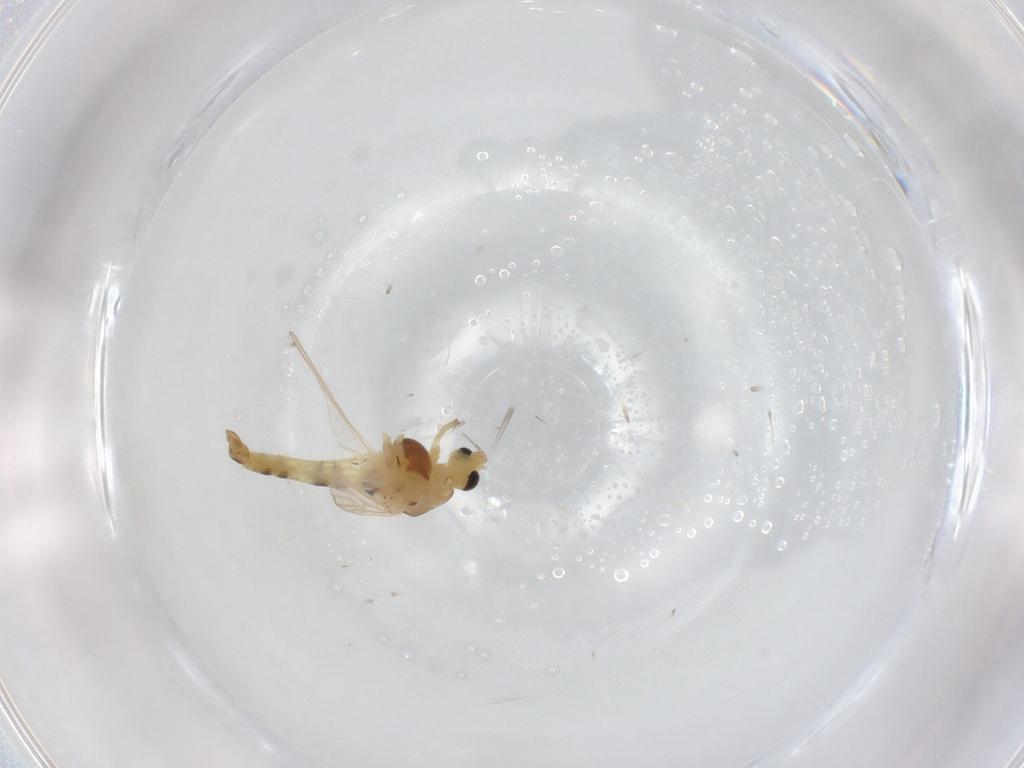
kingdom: Animalia
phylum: Arthropoda
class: Insecta
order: Diptera
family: Chironomidae
